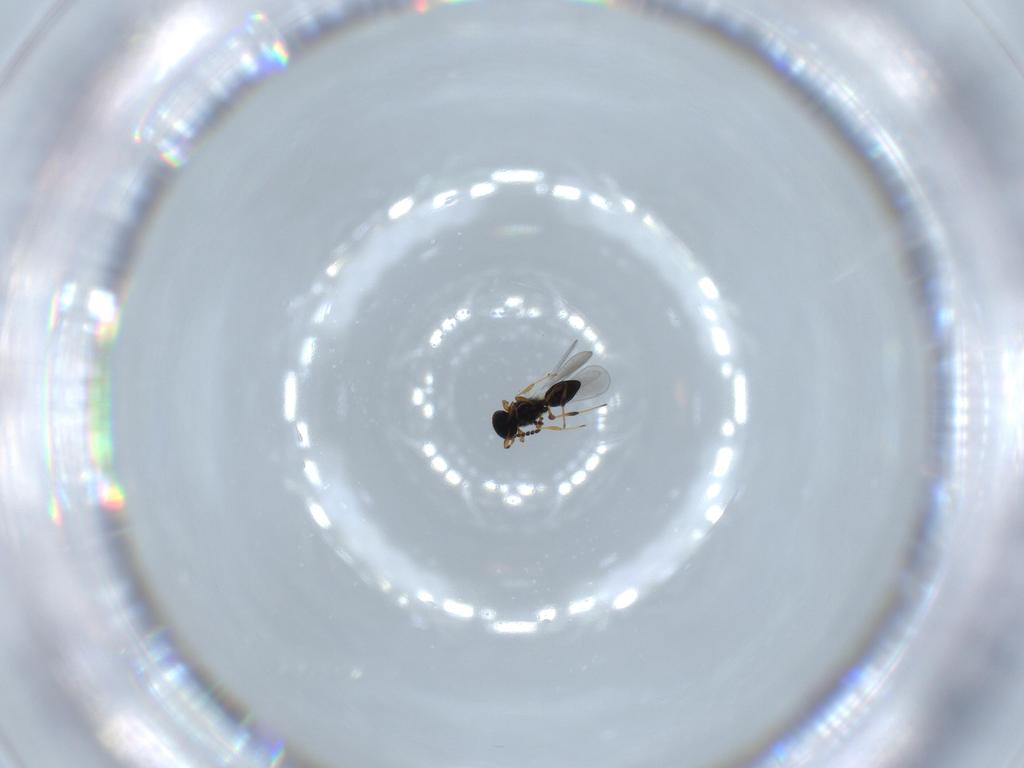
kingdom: Animalia
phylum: Arthropoda
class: Insecta
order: Hymenoptera
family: Platygastridae
